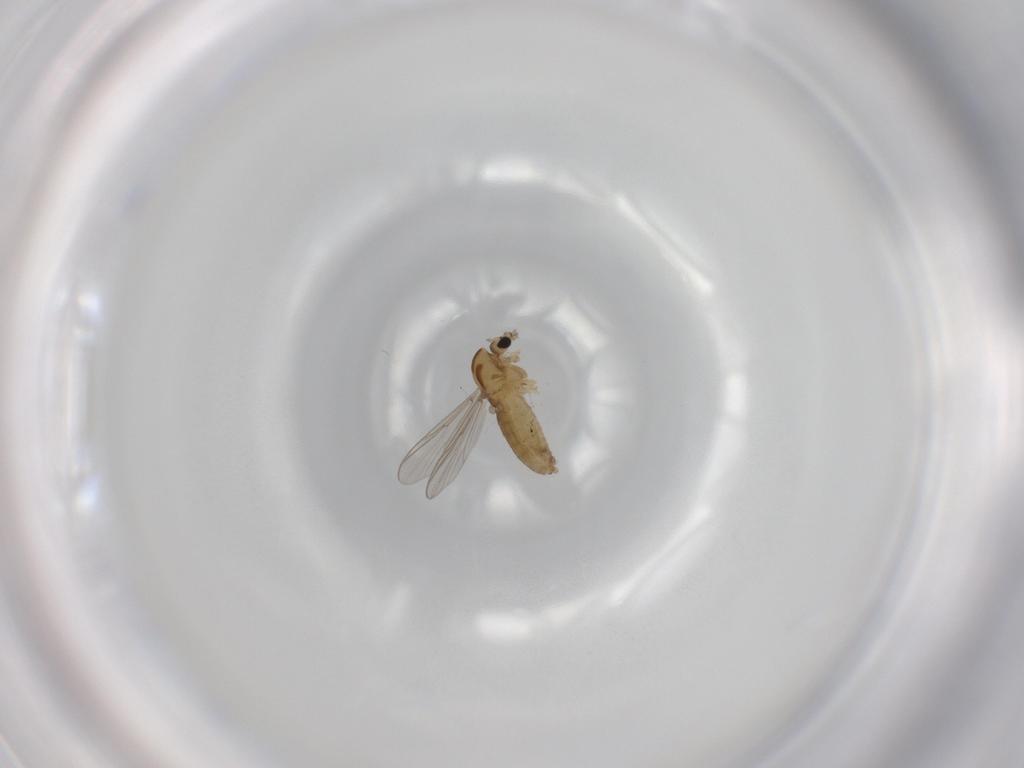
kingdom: Animalia
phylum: Arthropoda
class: Insecta
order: Diptera
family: Chironomidae
